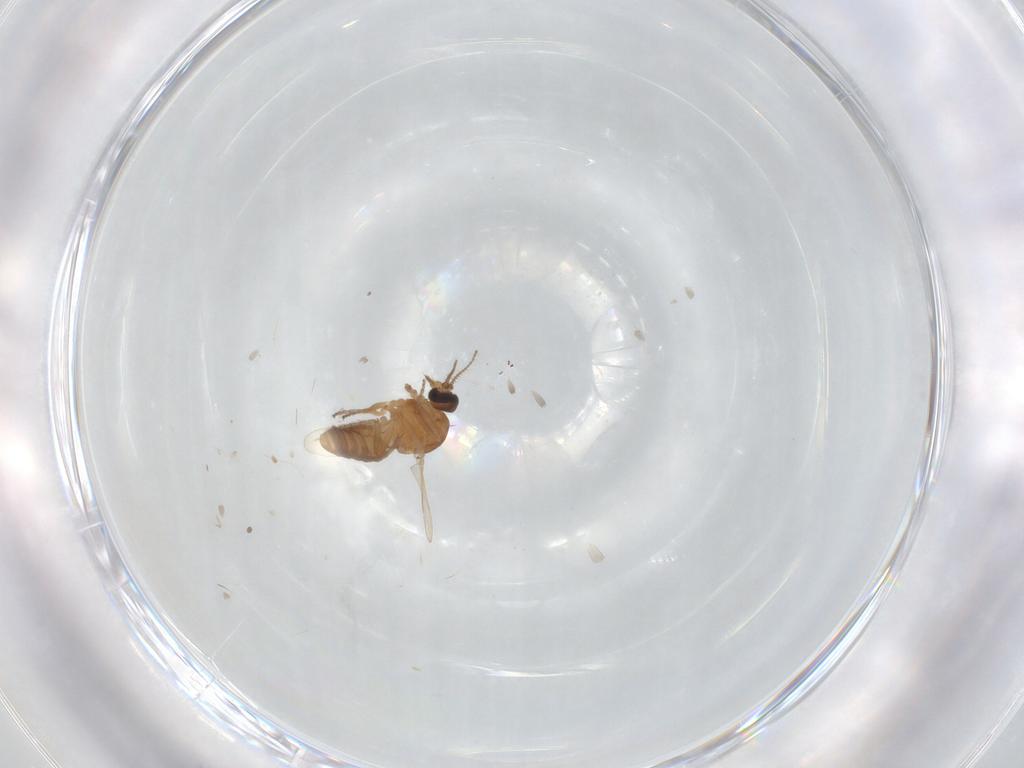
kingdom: Animalia
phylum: Arthropoda
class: Insecta
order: Diptera
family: Ceratopogonidae
